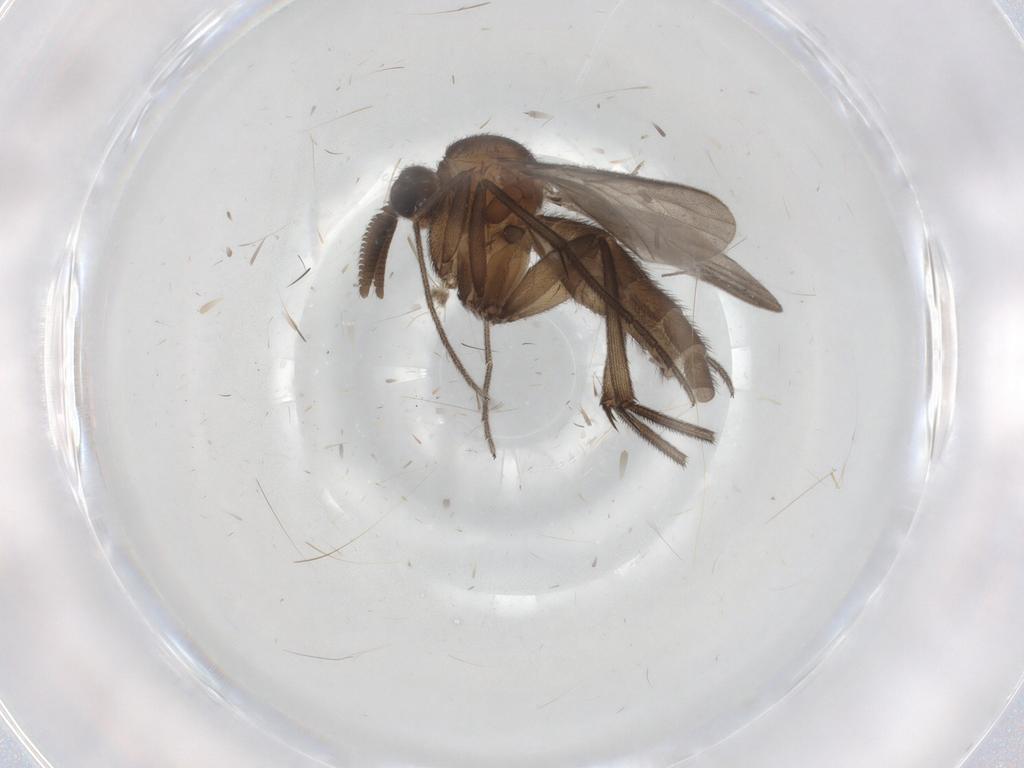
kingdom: Animalia
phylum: Arthropoda
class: Insecta
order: Diptera
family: Keroplatidae
